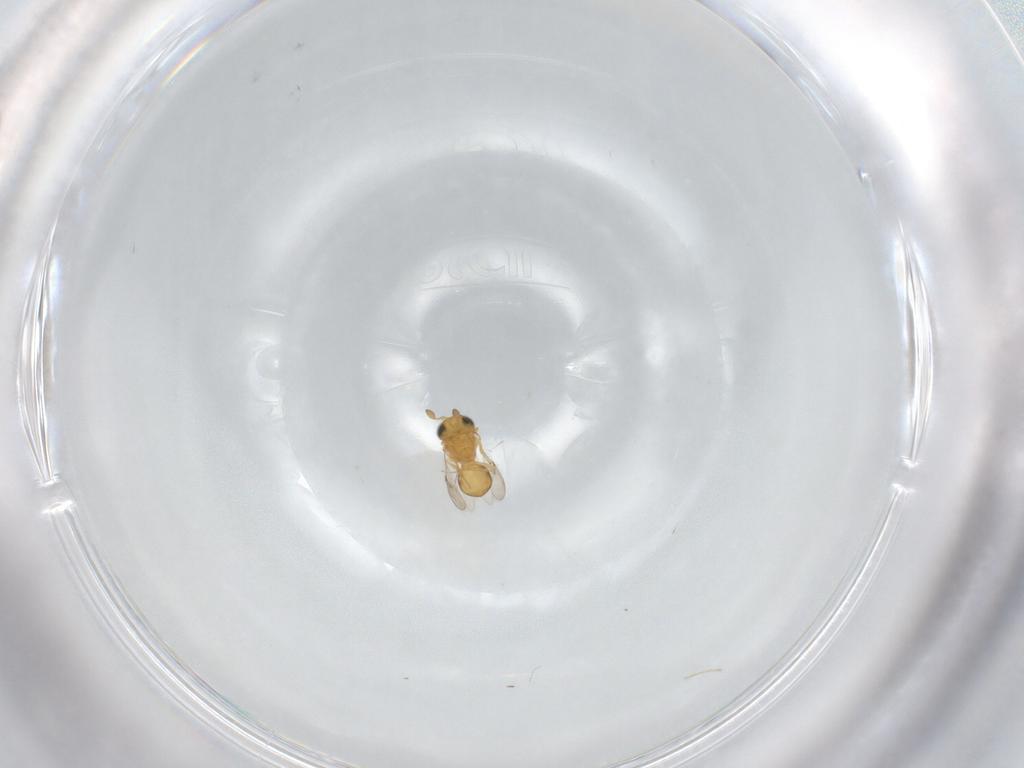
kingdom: Animalia
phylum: Arthropoda
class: Insecta
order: Hymenoptera
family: Scelionidae
